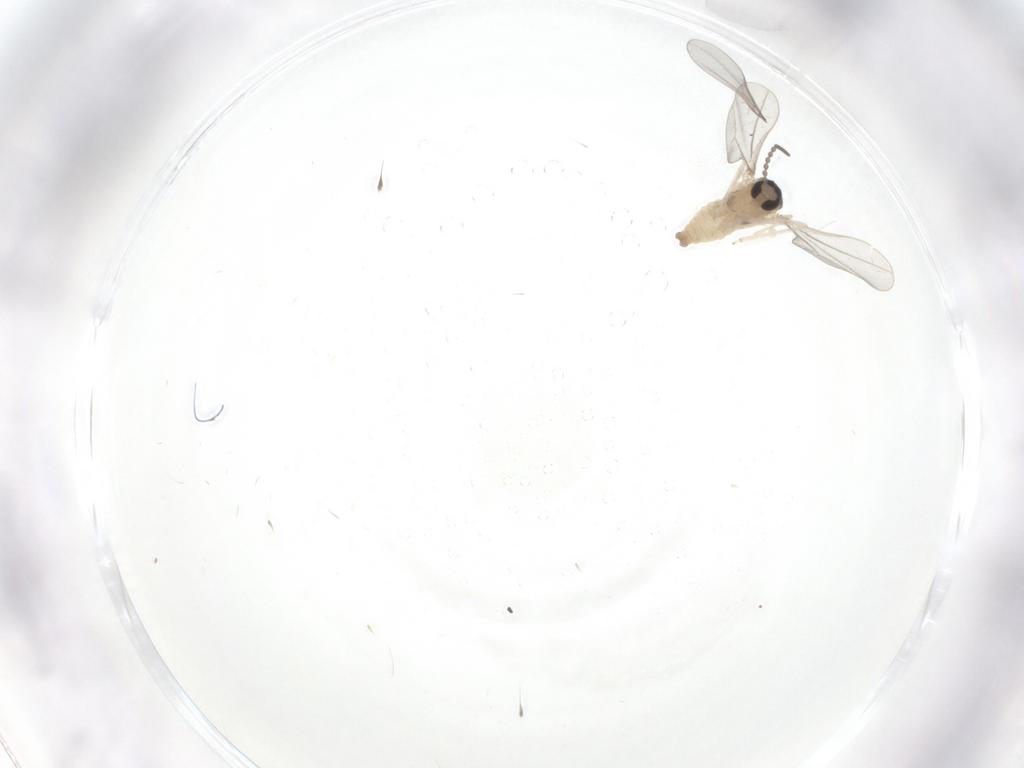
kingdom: Animalia
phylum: Arthropoda
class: Insecta
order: Diptera
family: Cecidomyiidae
